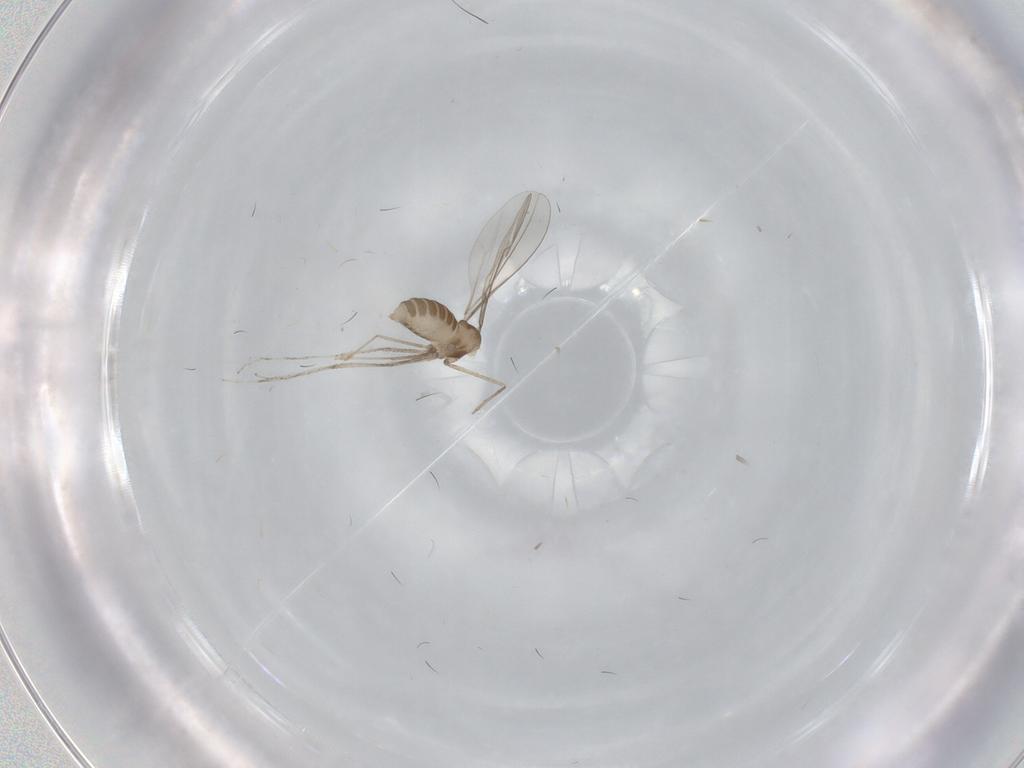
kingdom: Animalia
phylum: Arthropoda
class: Insecta
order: Diptera
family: Cecidomyiidae
